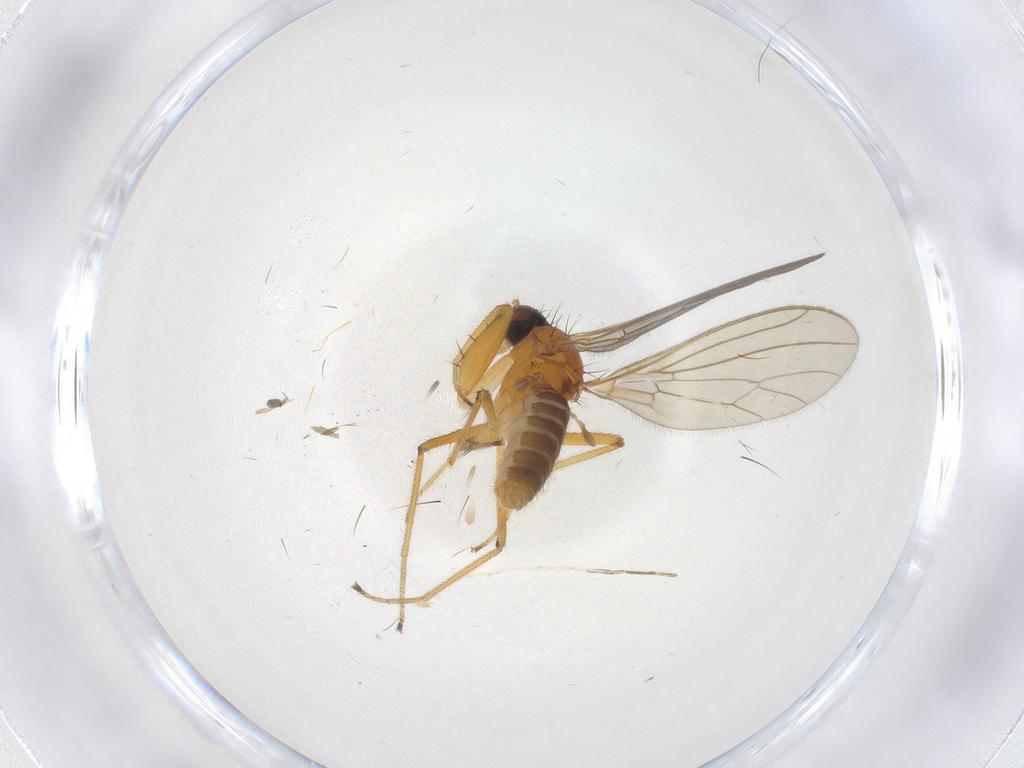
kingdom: Animalia
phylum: Arthropoda
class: Insecta
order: Diptera
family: Empididae
